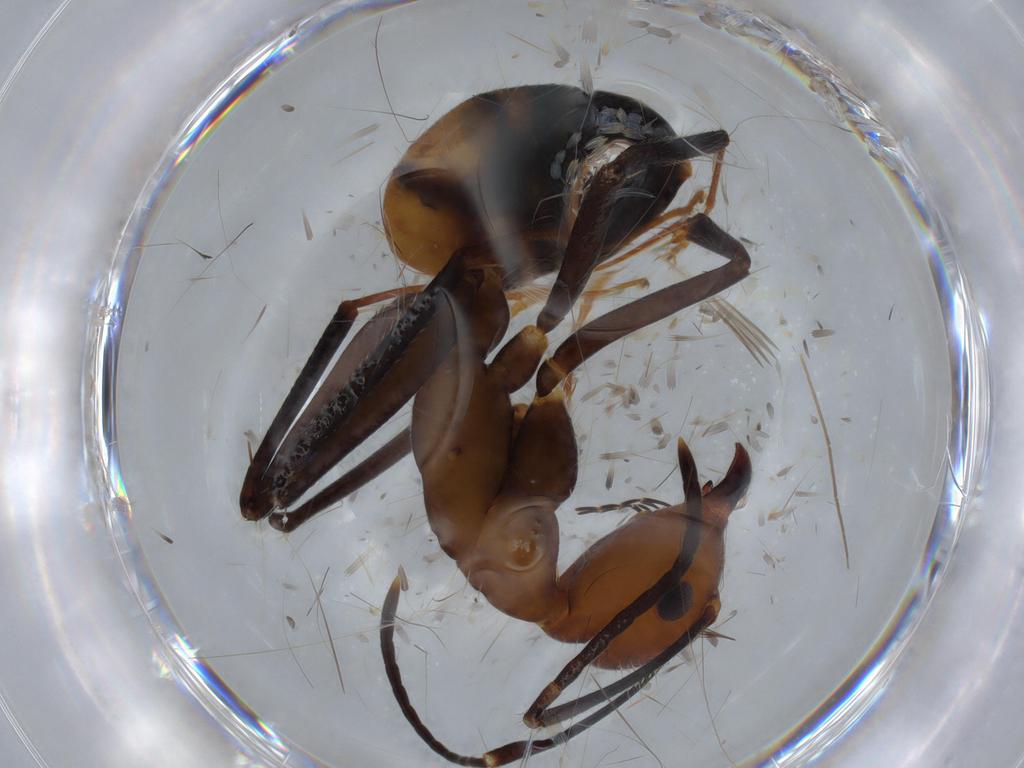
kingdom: Animalia
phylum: Arthropoda
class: Insecta
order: Hymenoptera
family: Formicidae
